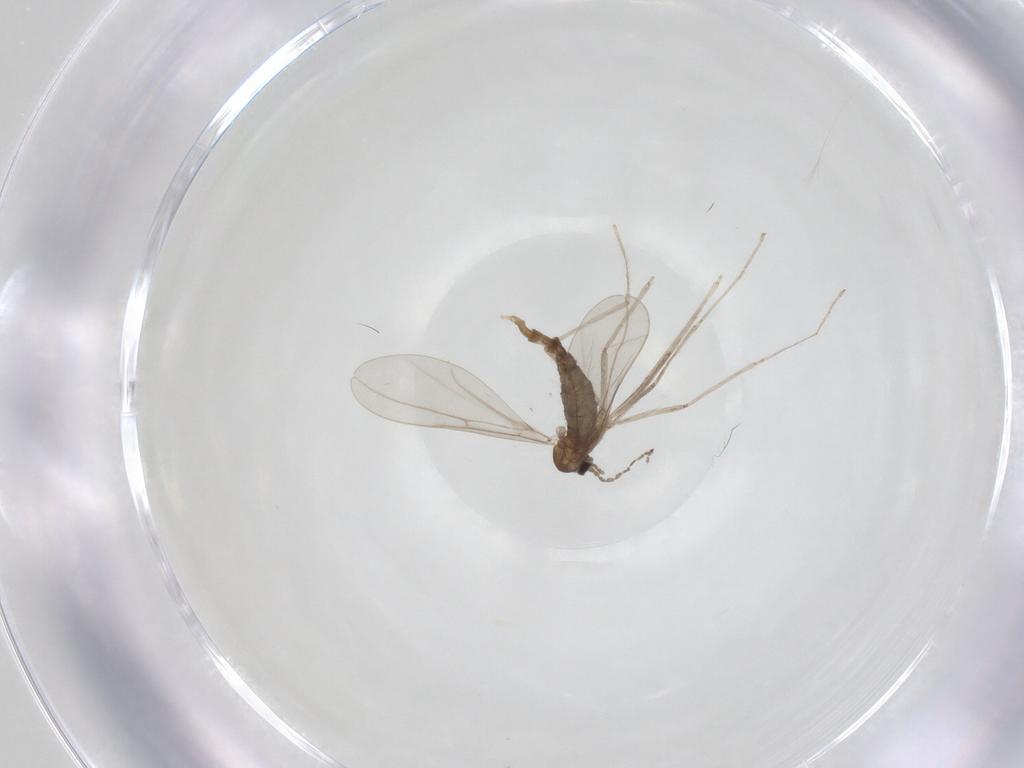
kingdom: Animalia
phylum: Arthropoda
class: Insecta
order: Diptera
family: Cecidomyiidae
